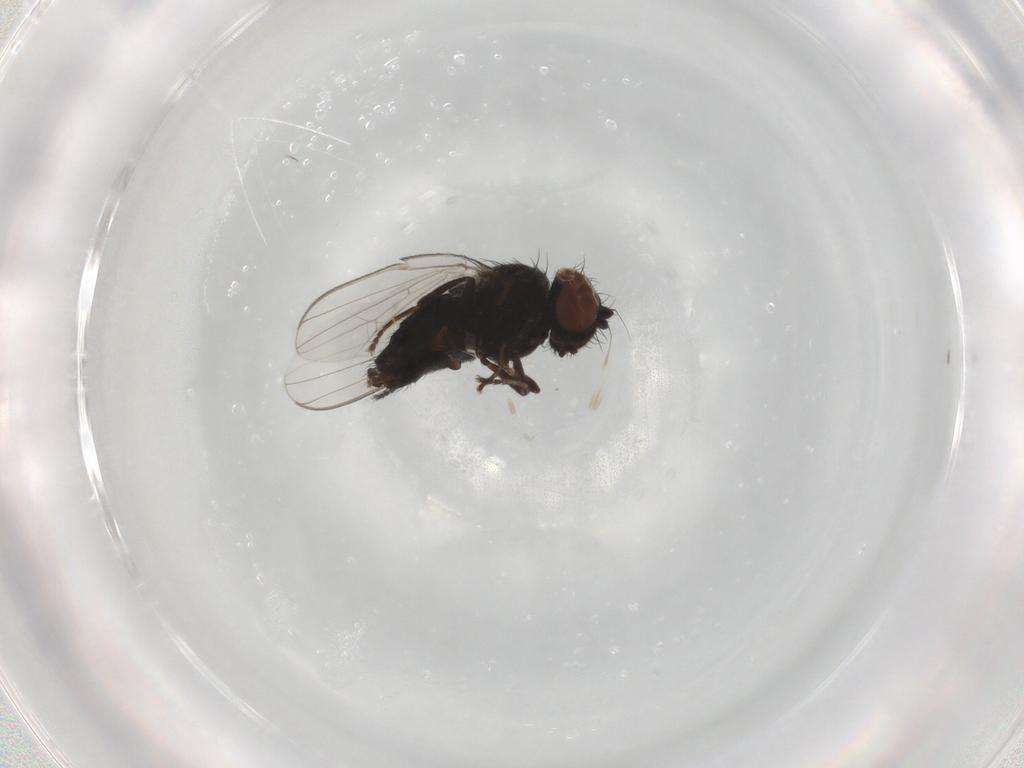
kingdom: Animalia
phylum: Arthropoda
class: Insecta
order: Diptera
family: Milichiidae
